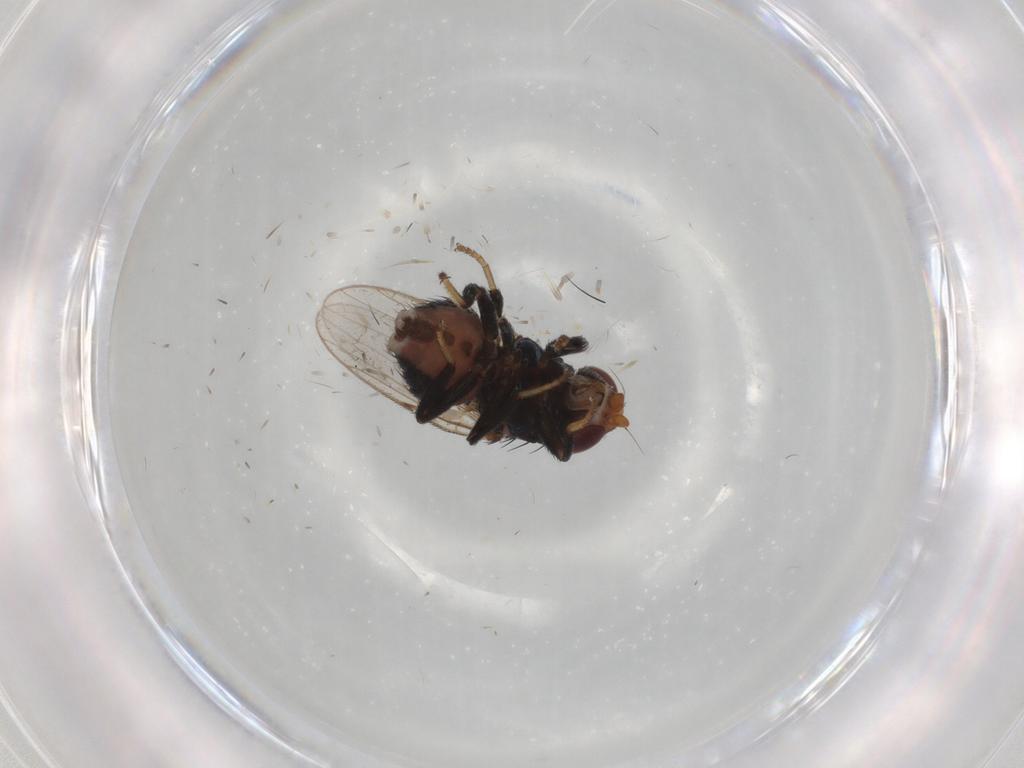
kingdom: Animalia
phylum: Arthropoda
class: Insecta
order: Diptera
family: Chloropidae
